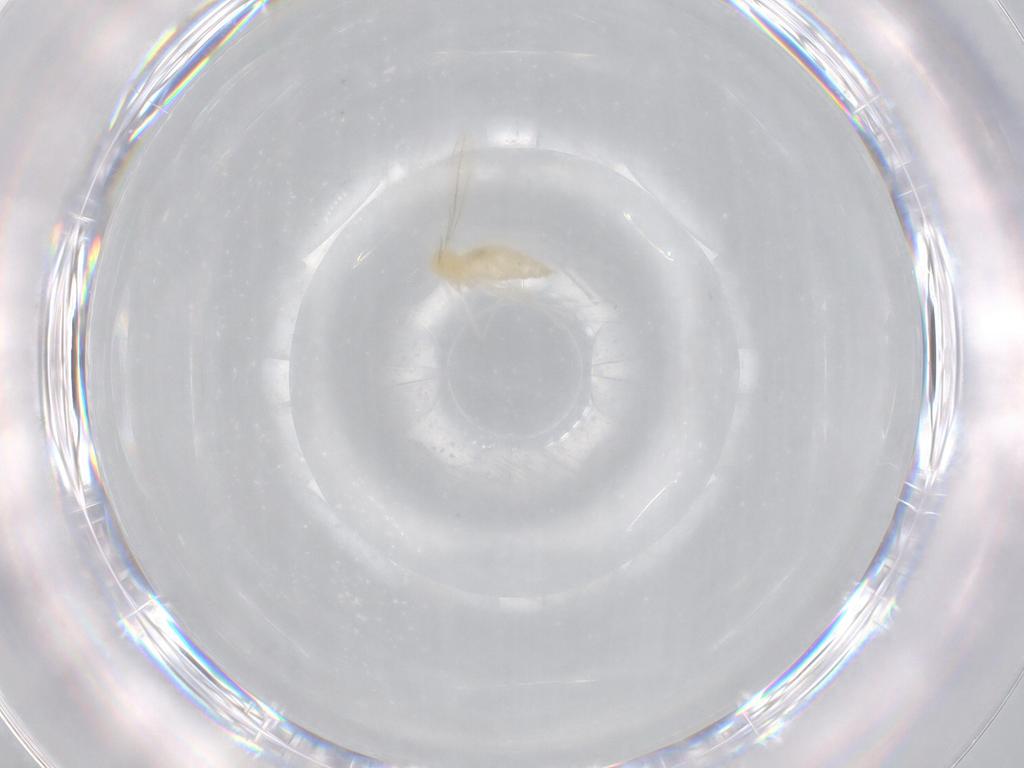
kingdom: Animalia
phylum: Arthropoda
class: Insecta
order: Diptera
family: Cecidomyiidae
